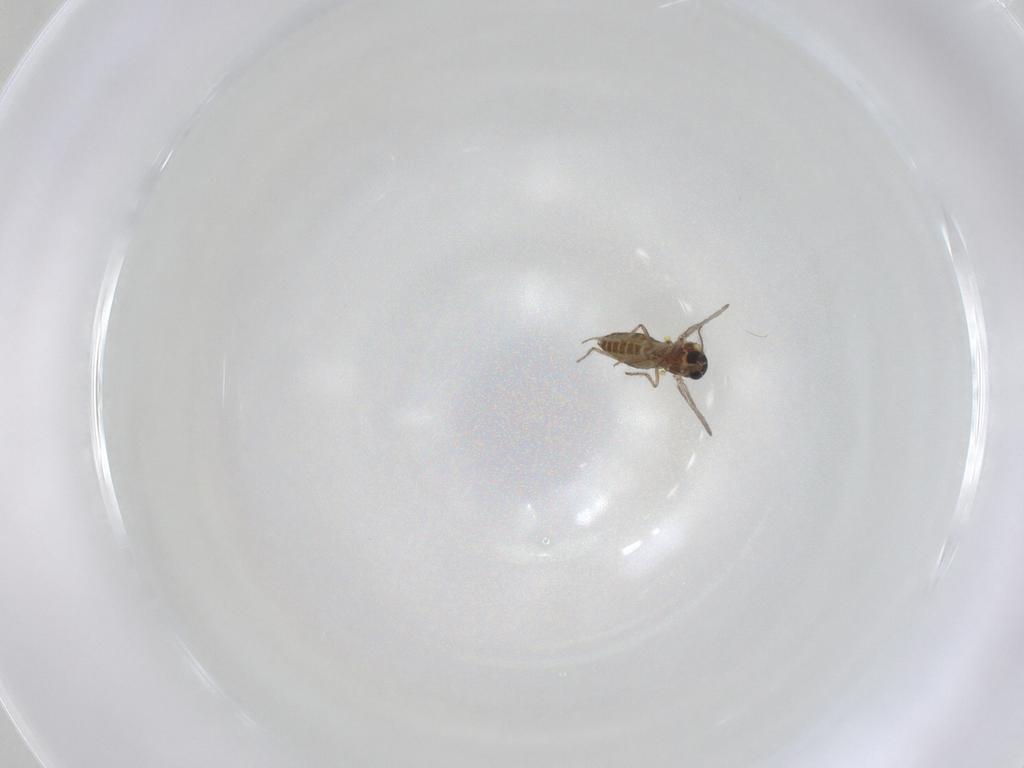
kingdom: Animalia
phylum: Arthropoda
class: Insecta
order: Diptera
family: Ceratopogonidae
